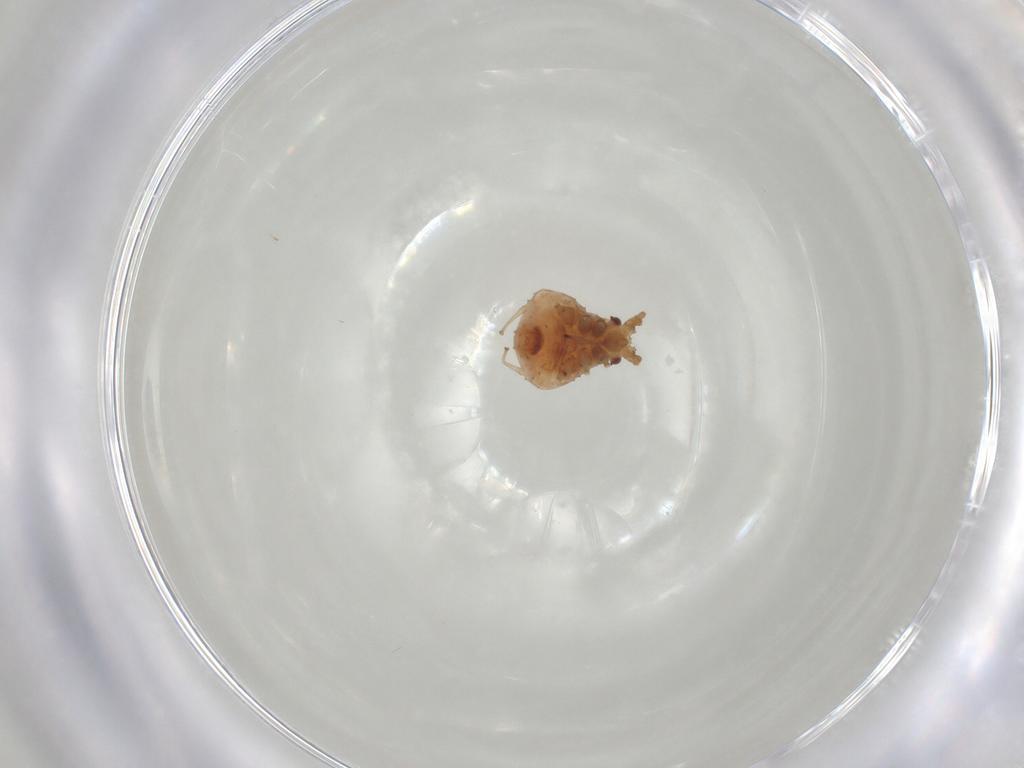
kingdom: Animalia
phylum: Arthropoda
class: Insecta
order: Hemiptera
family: Aphididae
